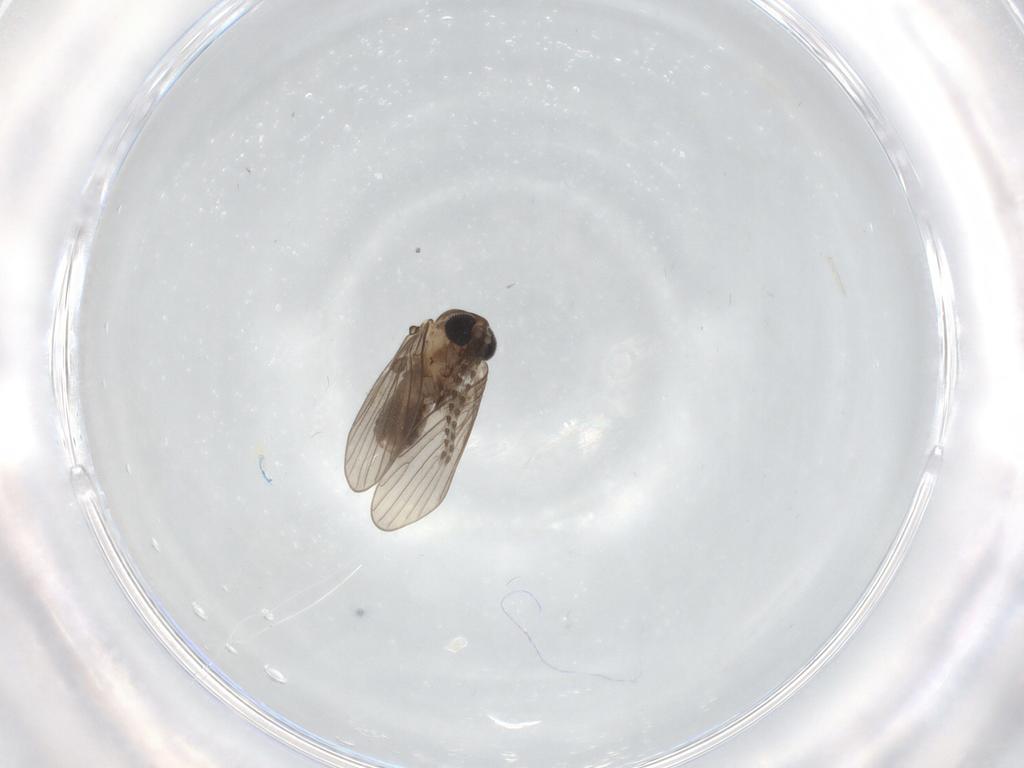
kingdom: Animalia
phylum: Arthropoda
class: Insecta
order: Diptera
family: Psychodidae
